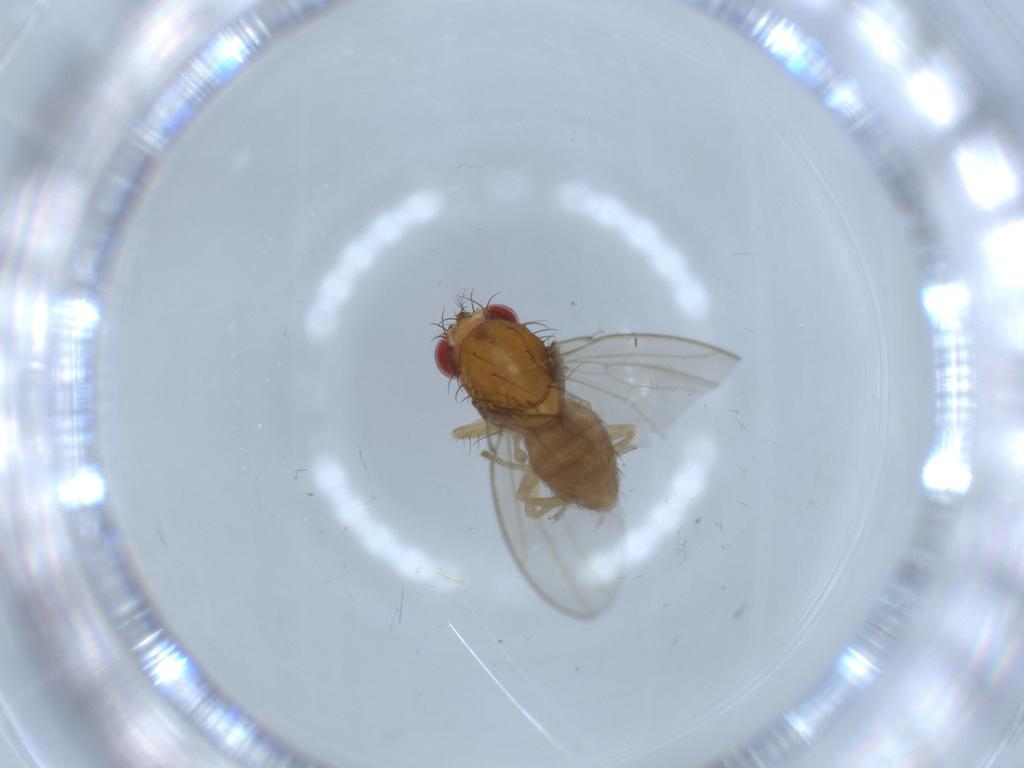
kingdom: Animalia
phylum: Arthropoda
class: Insecta
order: Diptera
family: Drosophilidae
